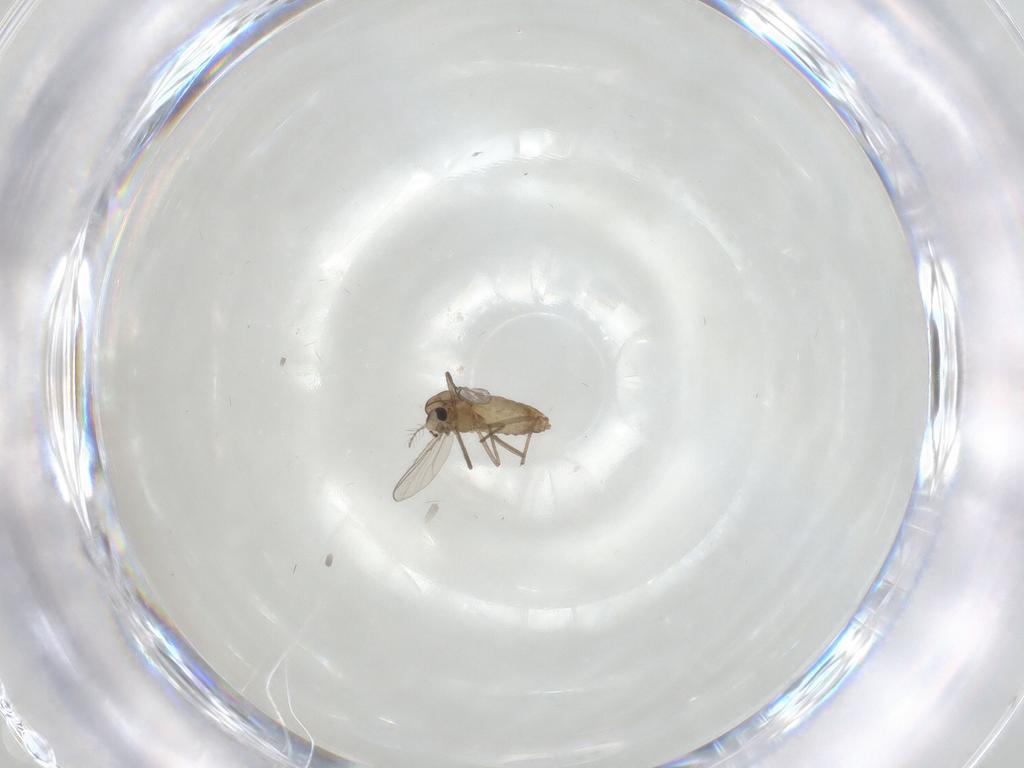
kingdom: Animalia
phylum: Arthropoda
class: Insecta
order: Diptera
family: Chironomidae
